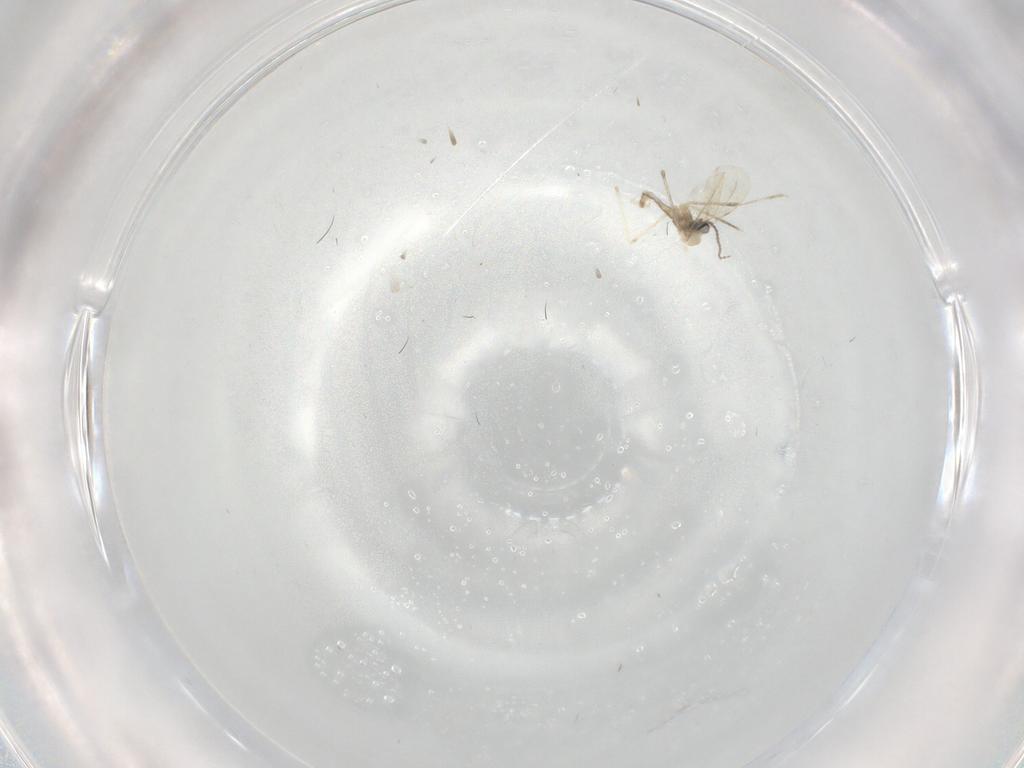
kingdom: Animalia
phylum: Arthropoda
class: Insecta
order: Diptera
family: Cecidomyiidae
